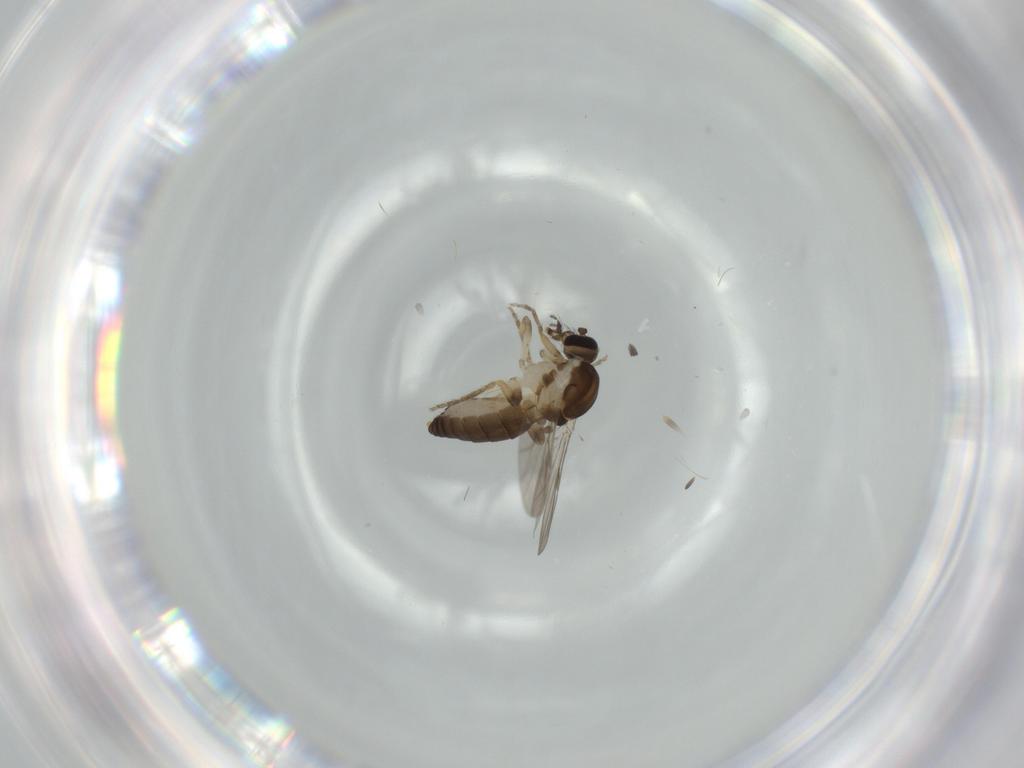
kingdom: Animalia
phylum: Arthropoda
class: Insecta
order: Diptera
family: Ceratopogonidae
